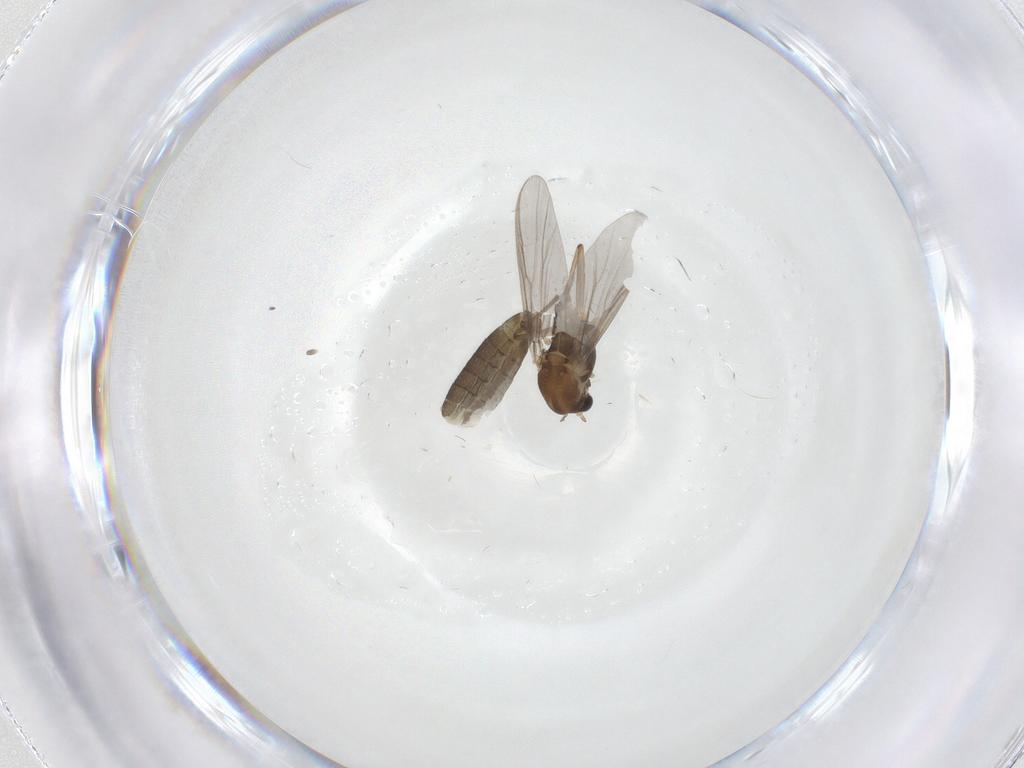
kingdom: Animalia
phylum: Arthropoda
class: Insecta
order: Diptera
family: Chironomidae
